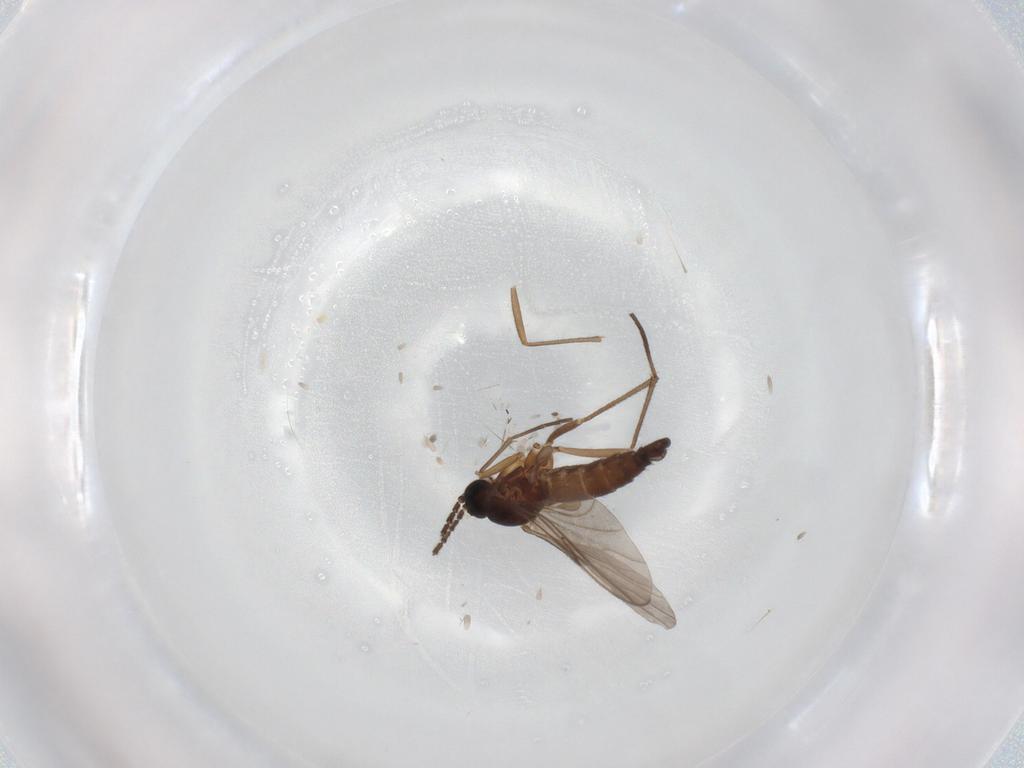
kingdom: Animalia
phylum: Arthropoda
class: Insecta
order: Diptera
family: Sciaridae
